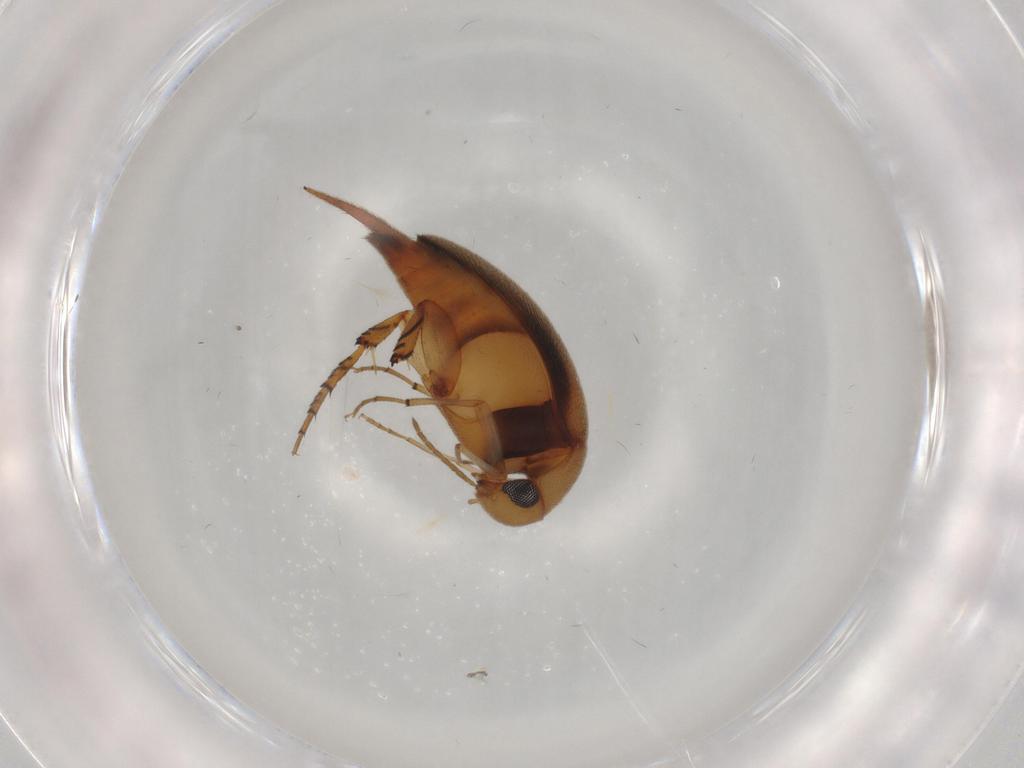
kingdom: Animalia
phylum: Arthropoda
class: Insecta
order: Coleoptera
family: Mordellidae
